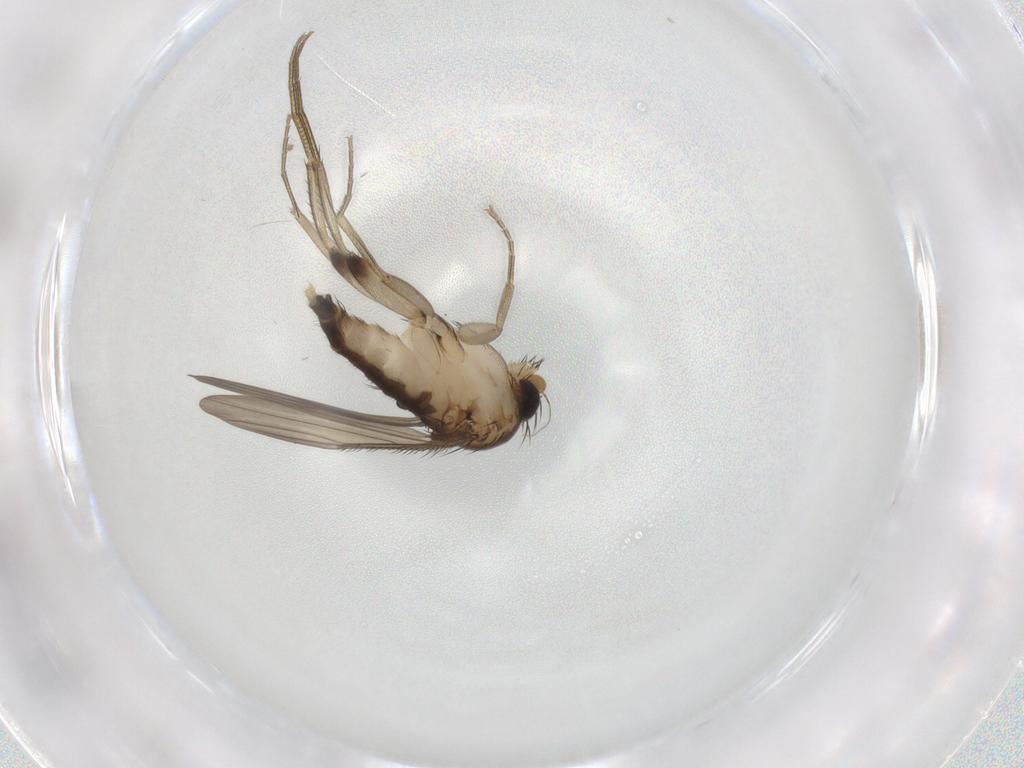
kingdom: Animalia
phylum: Arthropoda
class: Insecta
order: Diptera
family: Phoridae
